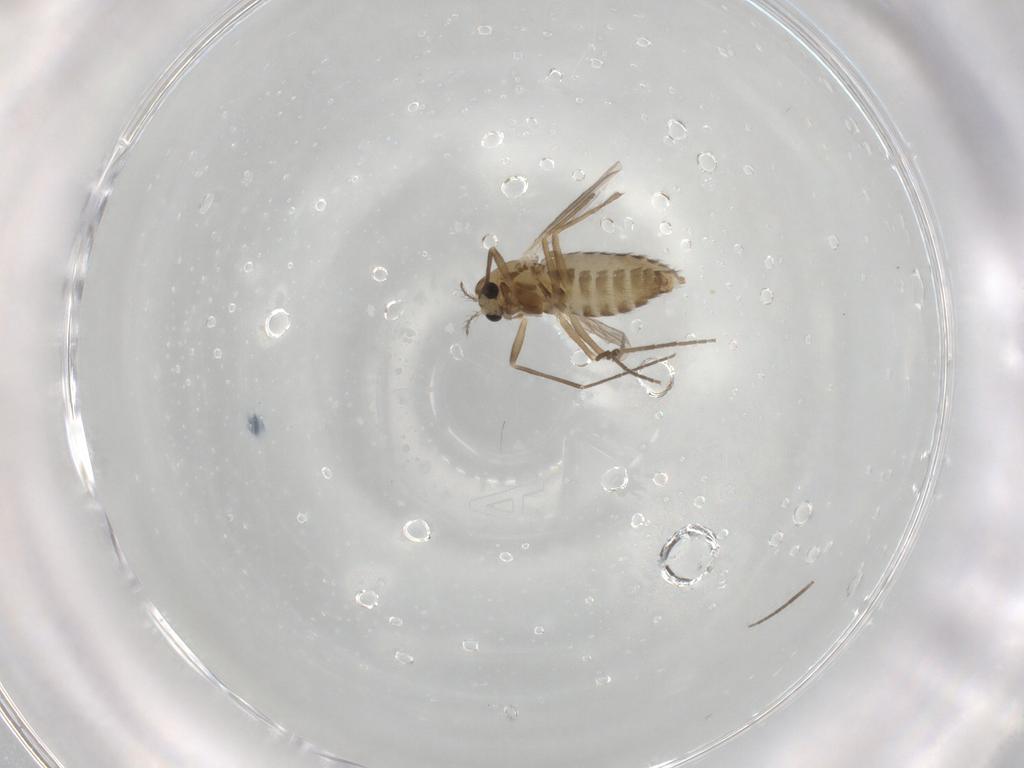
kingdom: Animalia
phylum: Arthropoda
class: Insecta
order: Diptera
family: Chironomidae
